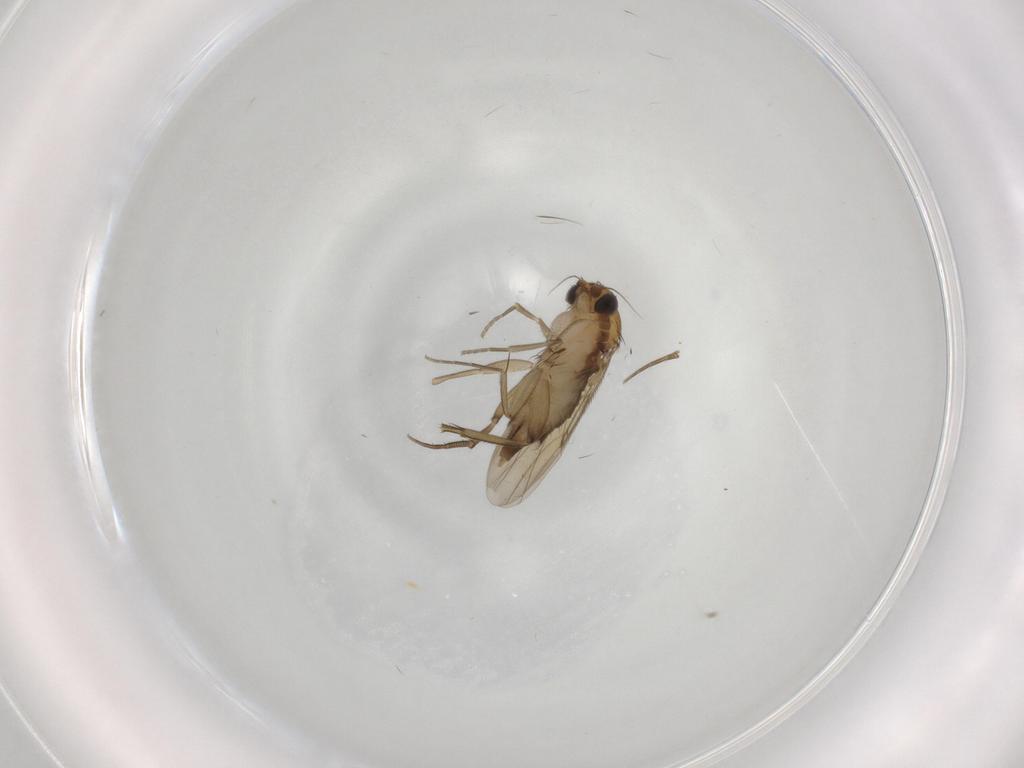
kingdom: Animalia
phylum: Arthropoda
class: Insecta
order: Diptera
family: Phoridae
